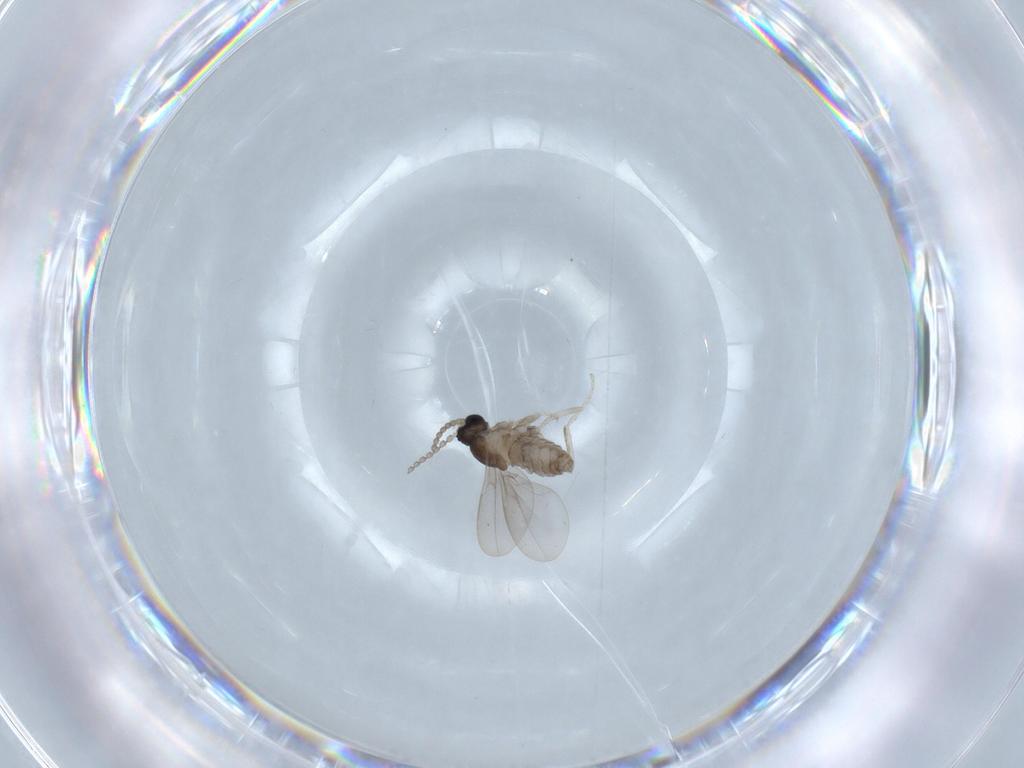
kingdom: Animalia
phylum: Arthropoda
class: Insecta
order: Diptera
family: Cecidomyiidae
